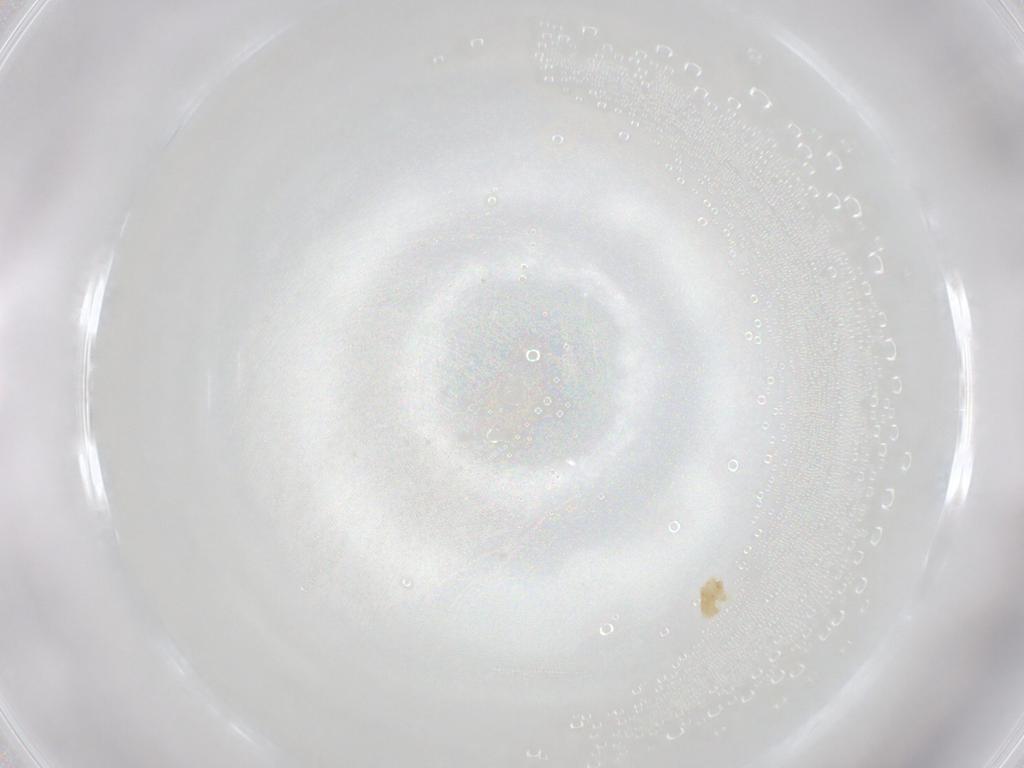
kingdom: Animalia
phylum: Arthropoda
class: Arachnida
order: Trombidiformes
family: Eupodidae
